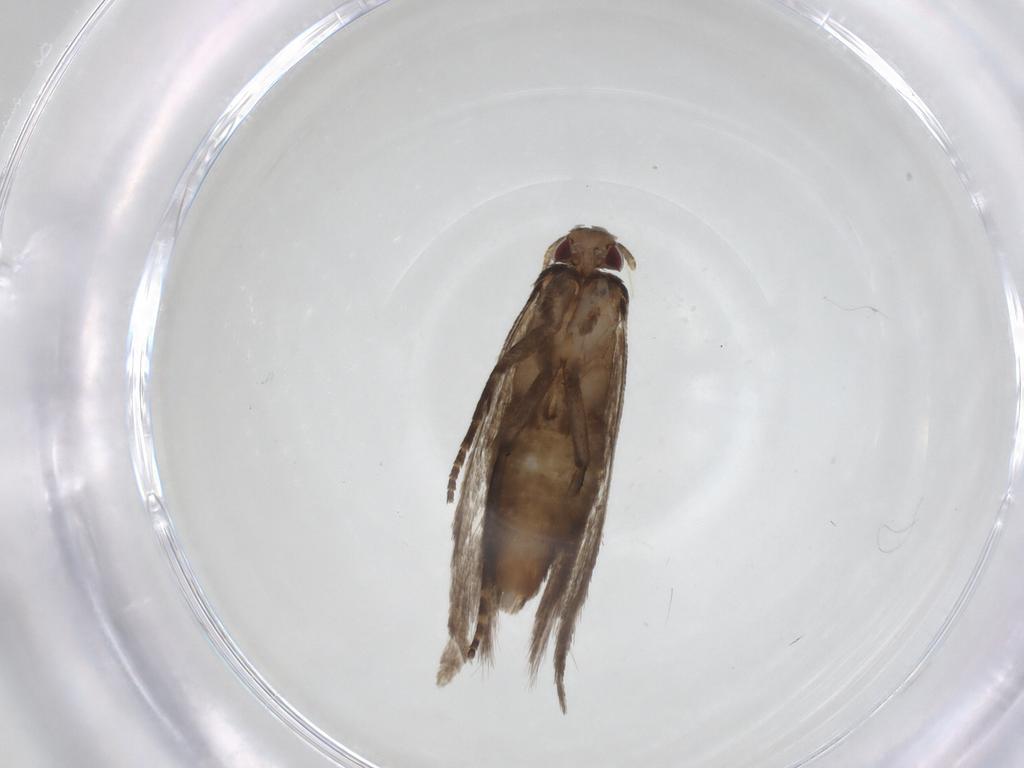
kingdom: Animalia
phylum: Arthropoda
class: Insecta
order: Lepidoptera
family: Gelechiidae
